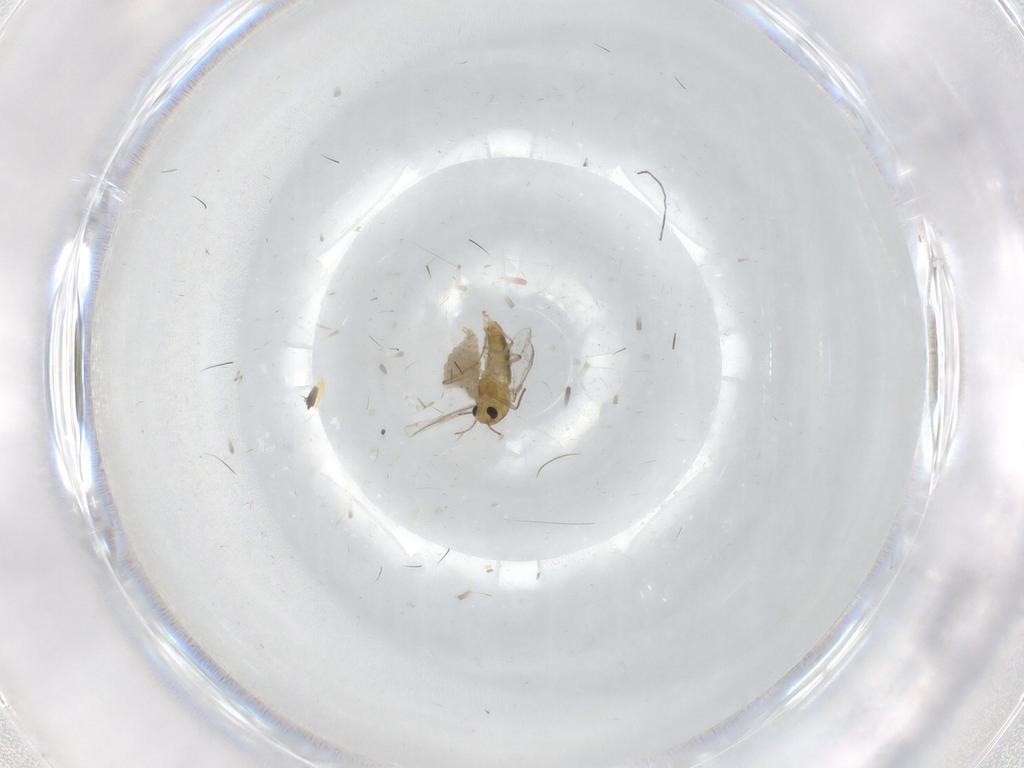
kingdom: Animalia
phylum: Arthropoda
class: Insecta
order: Diptera
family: Cecidomyiidae
